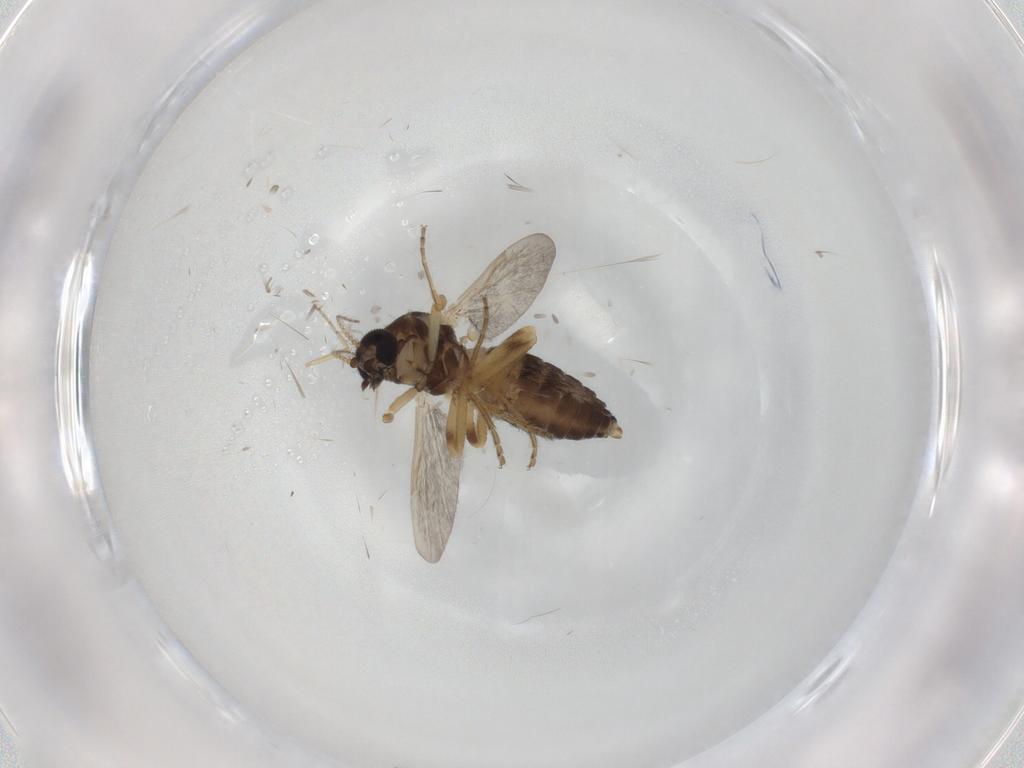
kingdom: Animalia
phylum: Arthropoda
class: Insecta
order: Diptera
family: Ceratopogonidae
